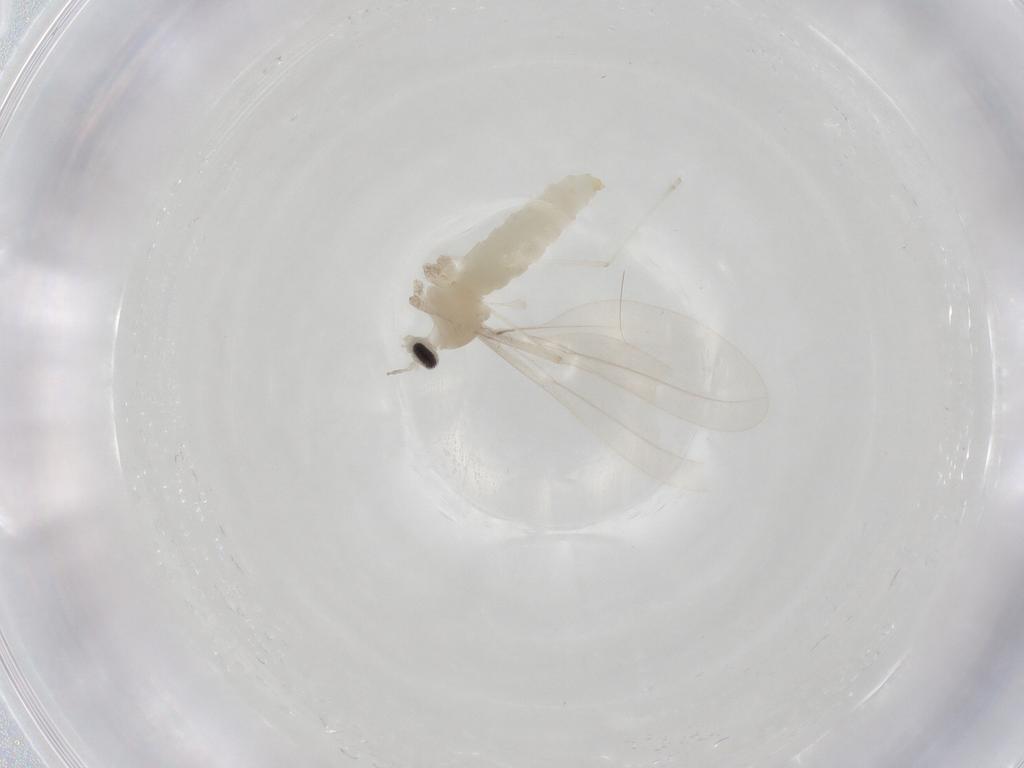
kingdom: Animalia
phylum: Arthropoda
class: Insecta
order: Diptera
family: Cecidomyiidae
